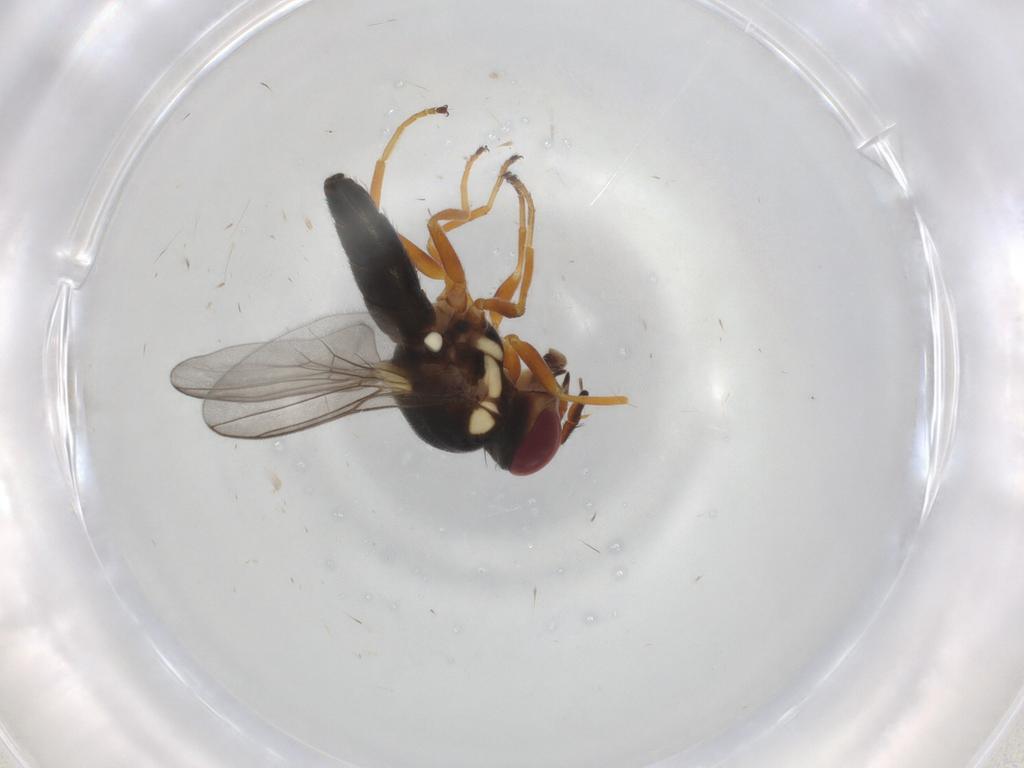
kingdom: Animalia
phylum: Arthropoda
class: Insecta
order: Diptera
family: Chloropidae
